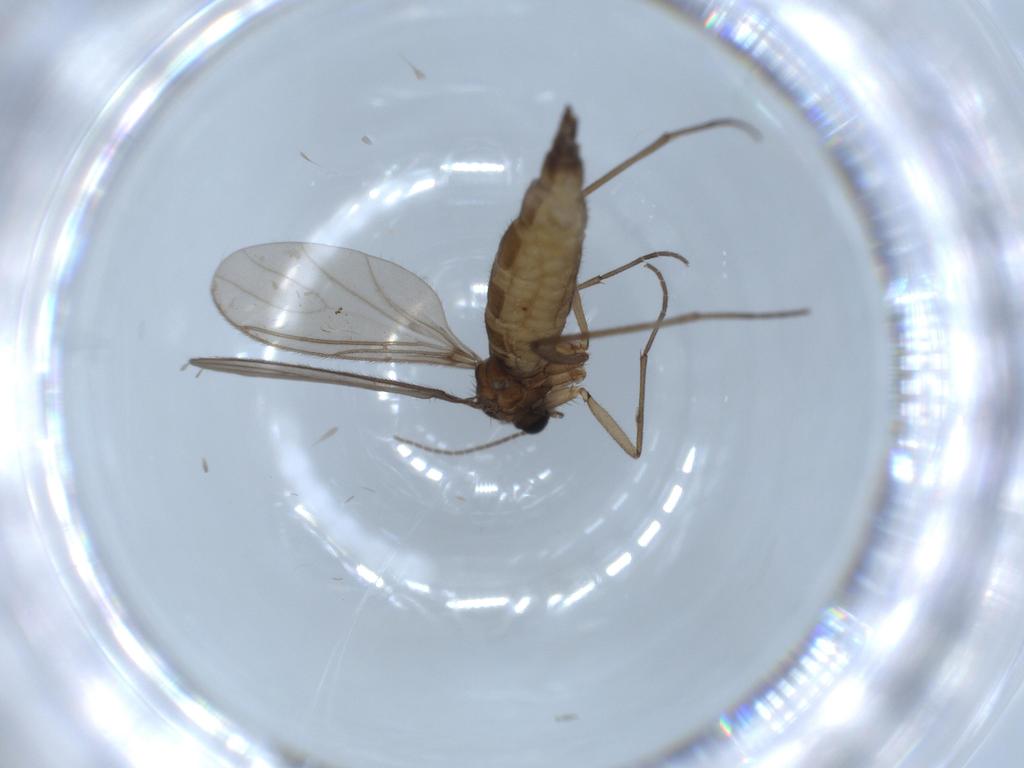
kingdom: Animalia
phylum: Arthropoda
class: Insecta
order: Diptera
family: Sciaridae
